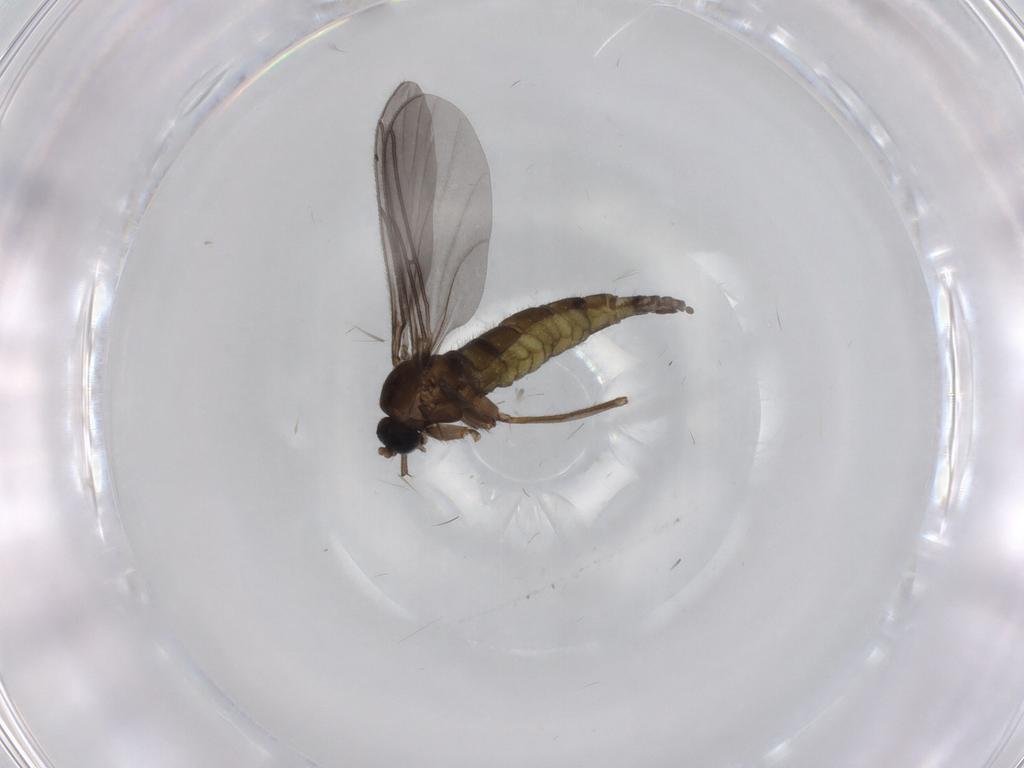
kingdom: Animalia
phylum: Arthropoda
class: Insecta
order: Diptera
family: Sciaridae
